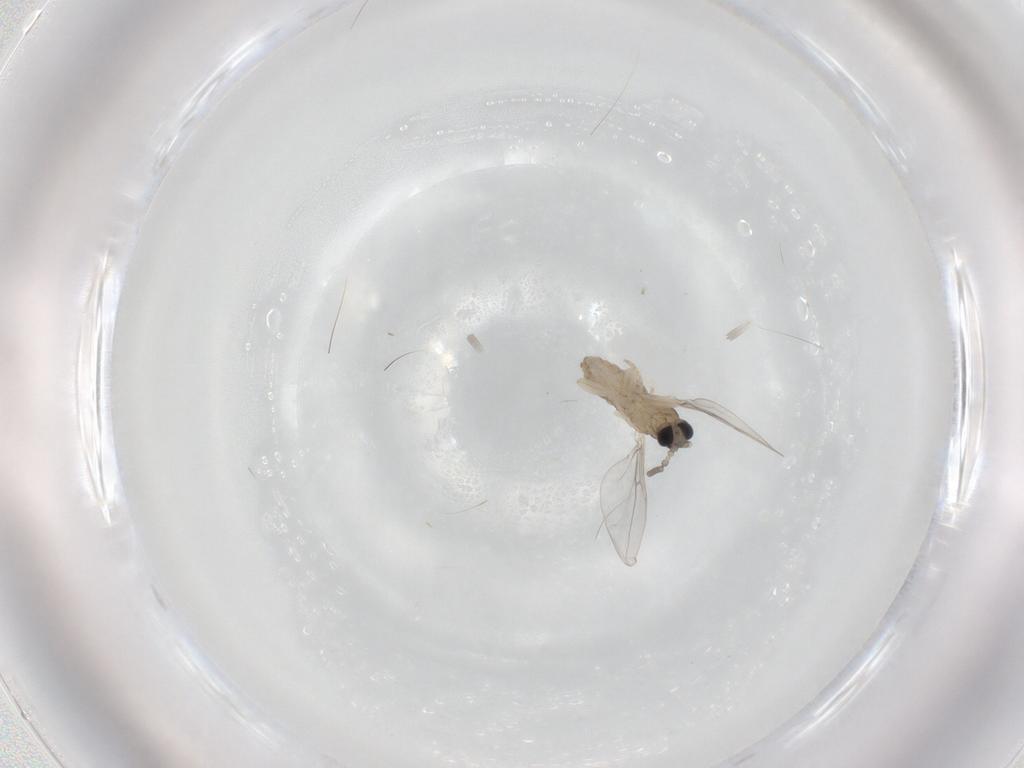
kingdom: Animalia
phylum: Arthropoda
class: Insecta
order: Diptera
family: Cecidomyiidae
